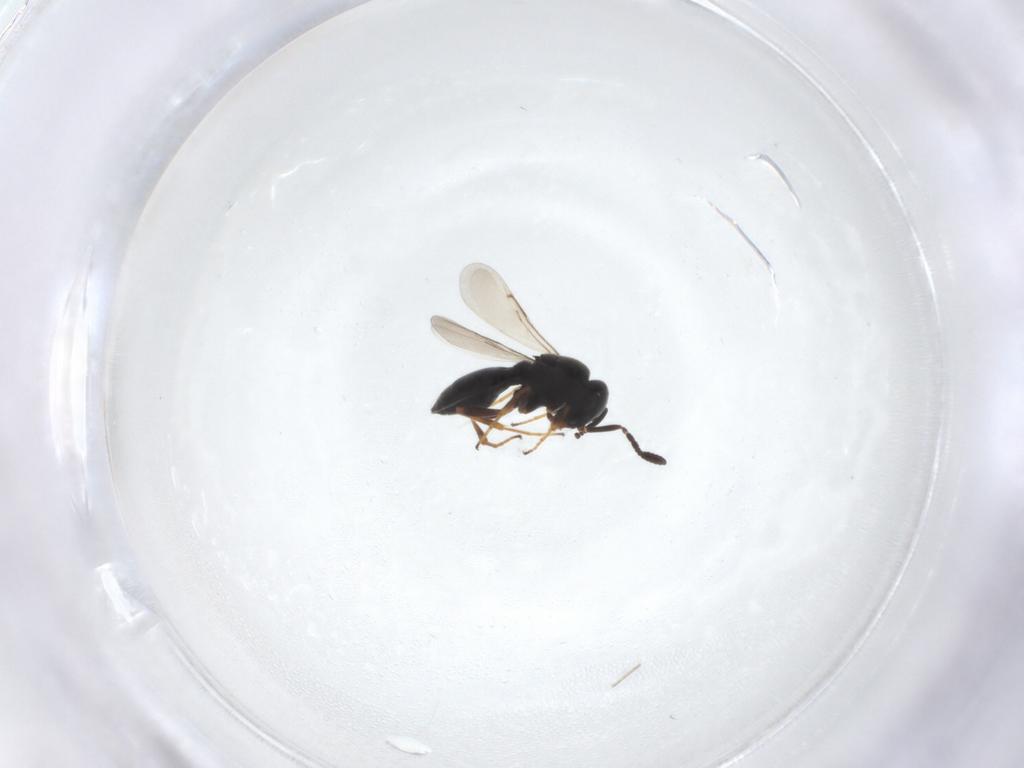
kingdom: Animalia
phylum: Arthropoda
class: Insecta
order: Hymenoptera
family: Scelionidae
